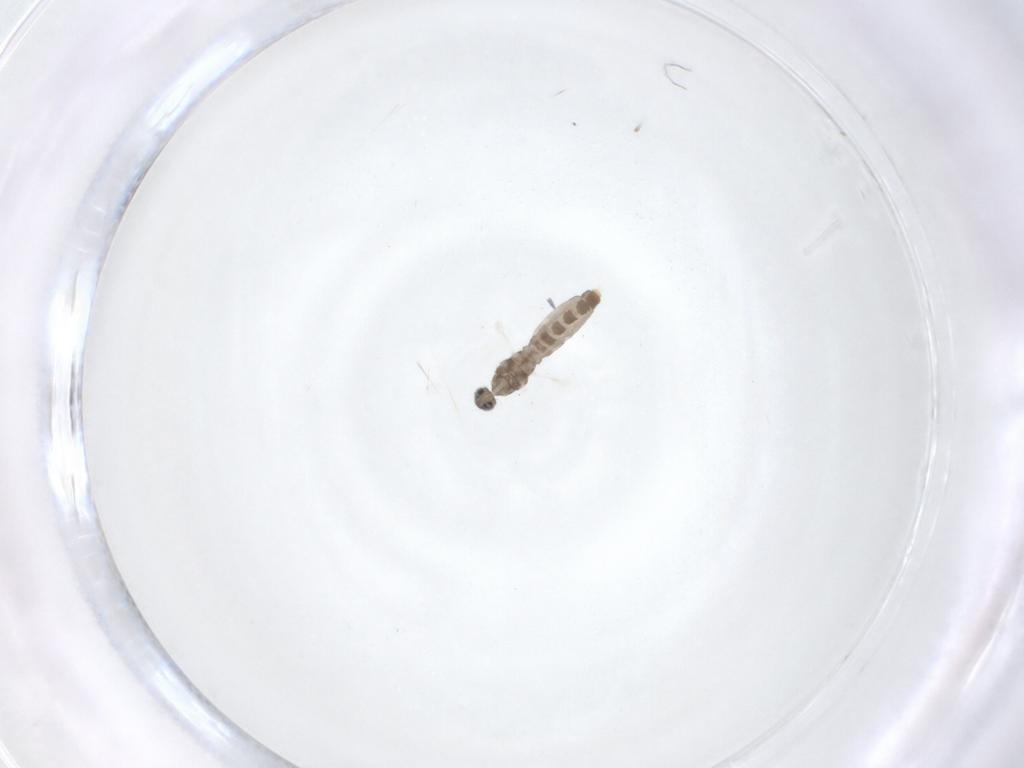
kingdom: Animalia
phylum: Arthropoda
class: Insecta
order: Diptera
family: Cecidomyiidae
